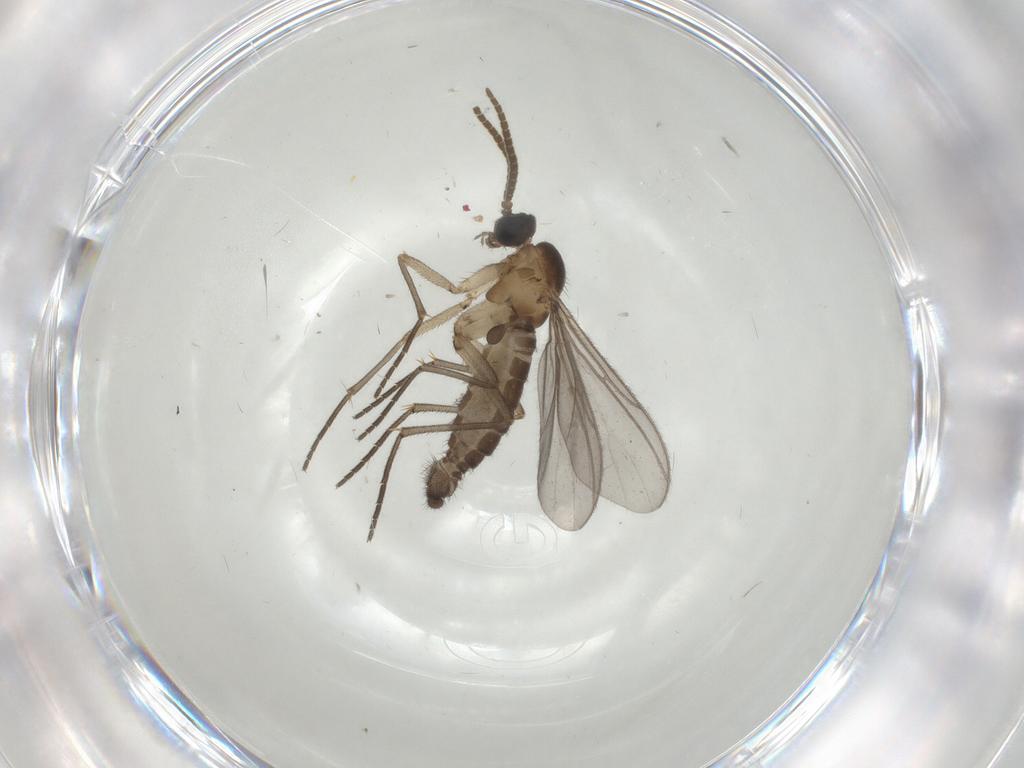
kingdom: Animalia
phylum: Arthropoda
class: Insecta
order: Diptera
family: Bibionidae
